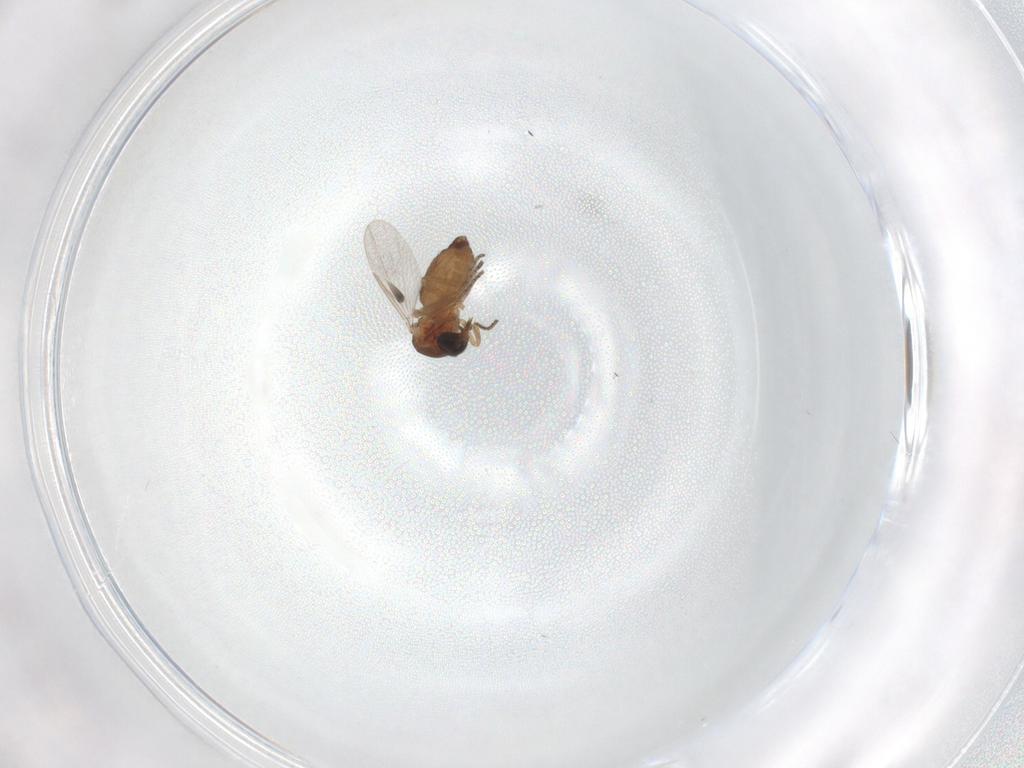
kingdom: Animalia
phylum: Arthropoda
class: Insecta
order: Diptera
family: Ceratopogonidae
